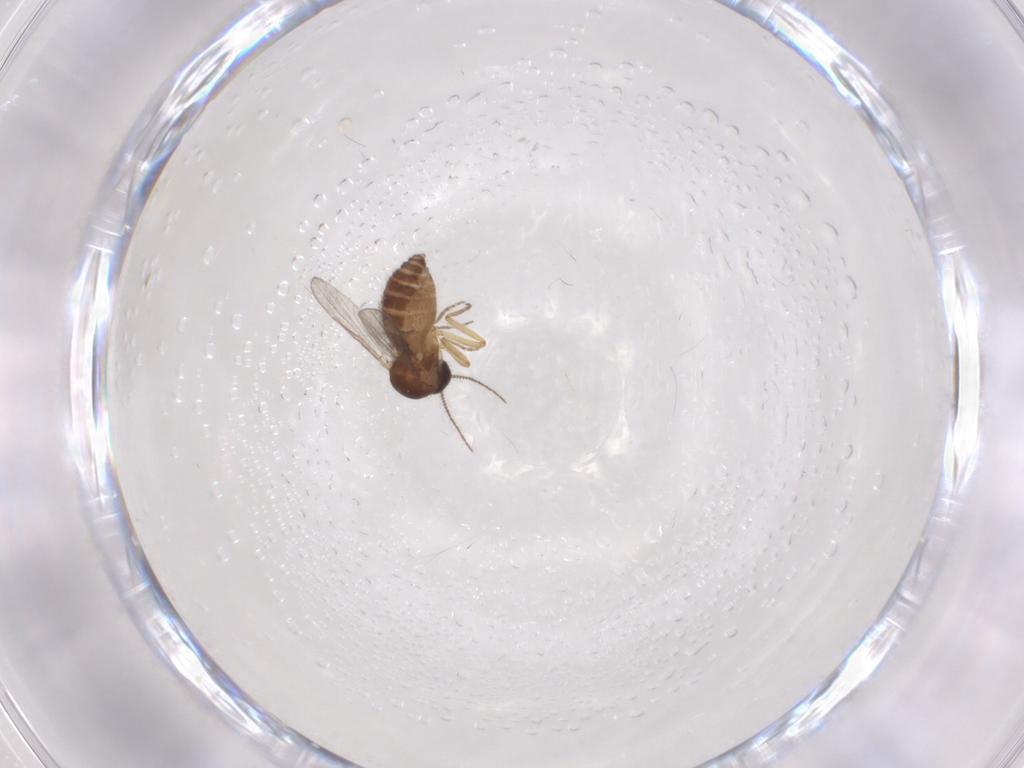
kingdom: Animalia
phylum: Arthropoda
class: Insecta
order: Diptera
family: Ceratopogonidae
